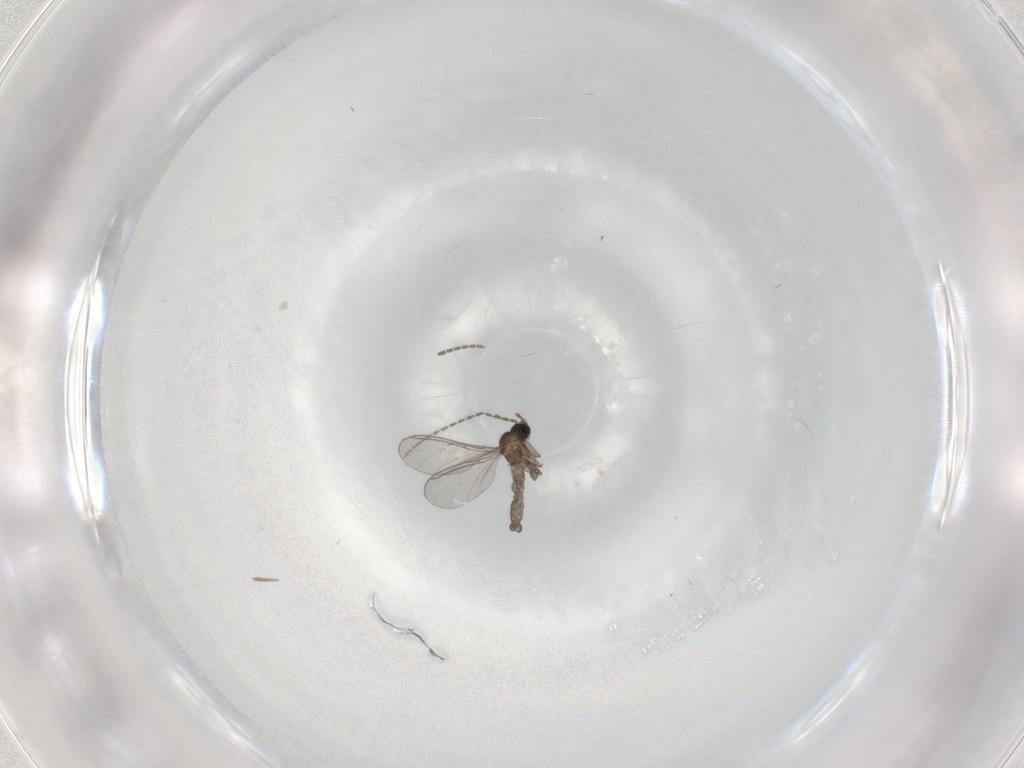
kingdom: Animalia
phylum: Arthropoda
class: Insecta
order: Diptera
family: Sciaridae
